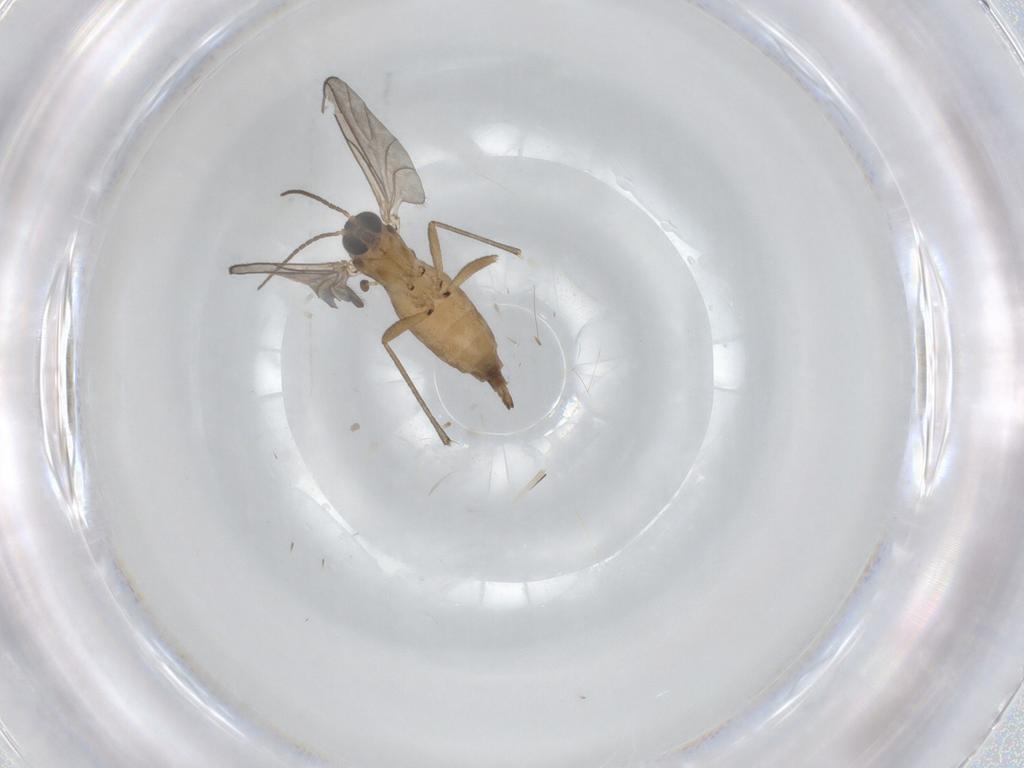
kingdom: Animalia
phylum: Arthropoda
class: Insecta
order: Diptera
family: Sciaridae
